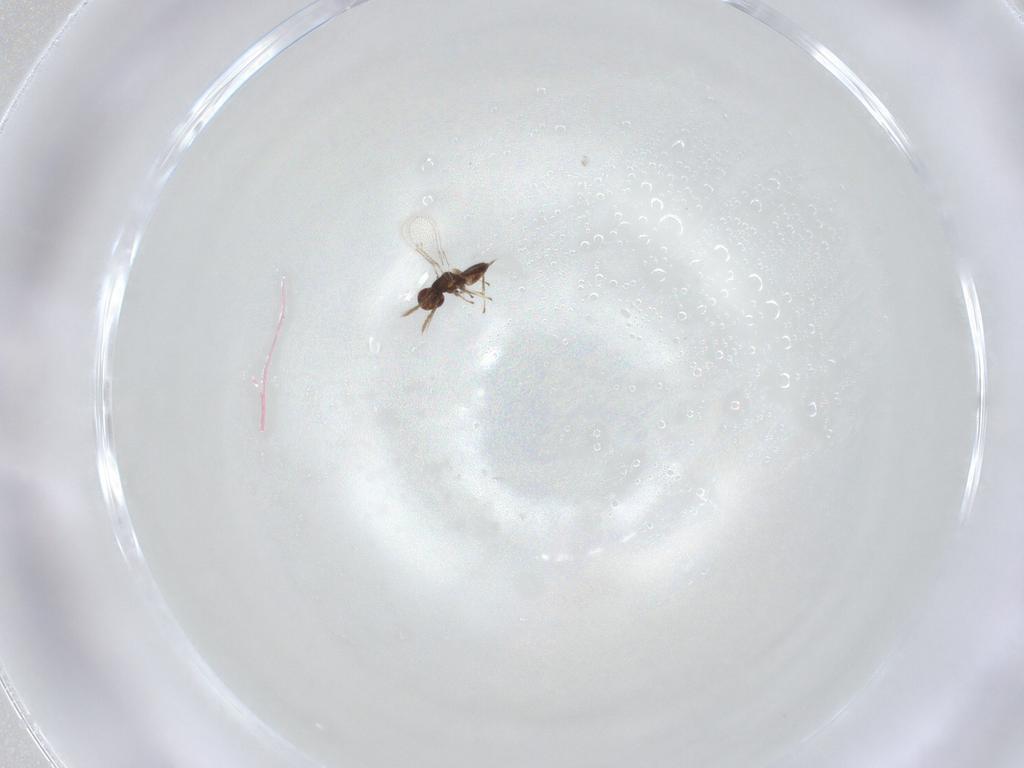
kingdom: Animalia
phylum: Arthropoda
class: Insecta
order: Hymenoptera
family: Eulophidae
